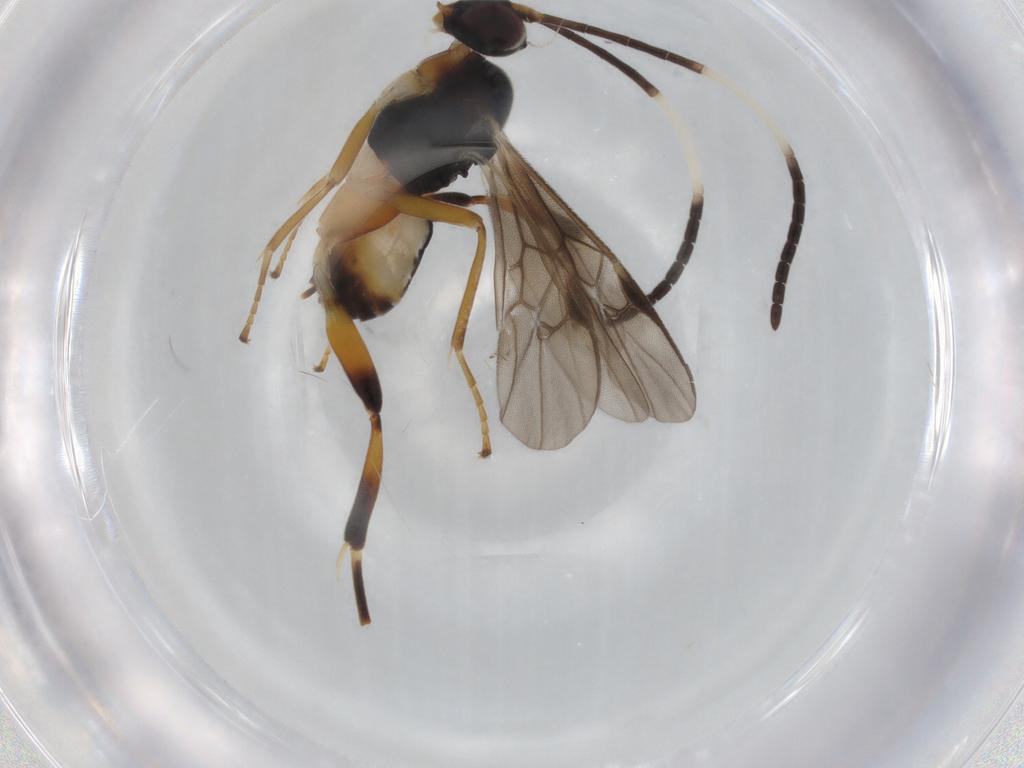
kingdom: Animalia
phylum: Arthropoda
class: Insecta
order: Hymenoptera
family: Braconidae
